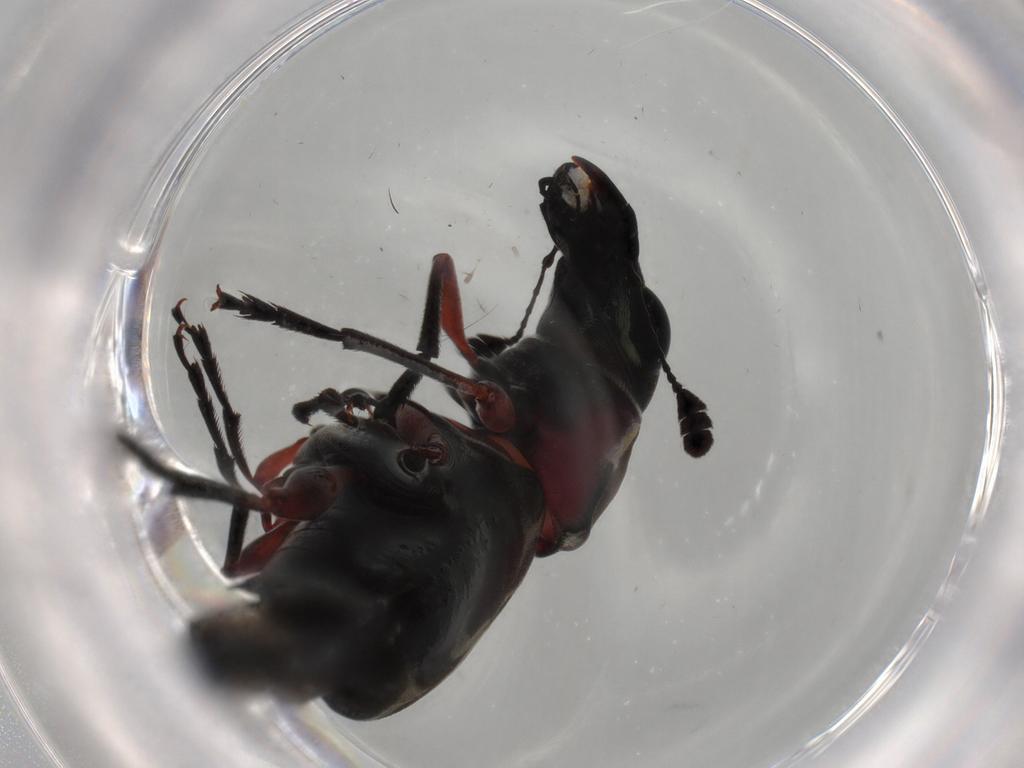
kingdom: Animalia
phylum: Arthropoda
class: Insecta
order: Coleoptera
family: Anthribidae
